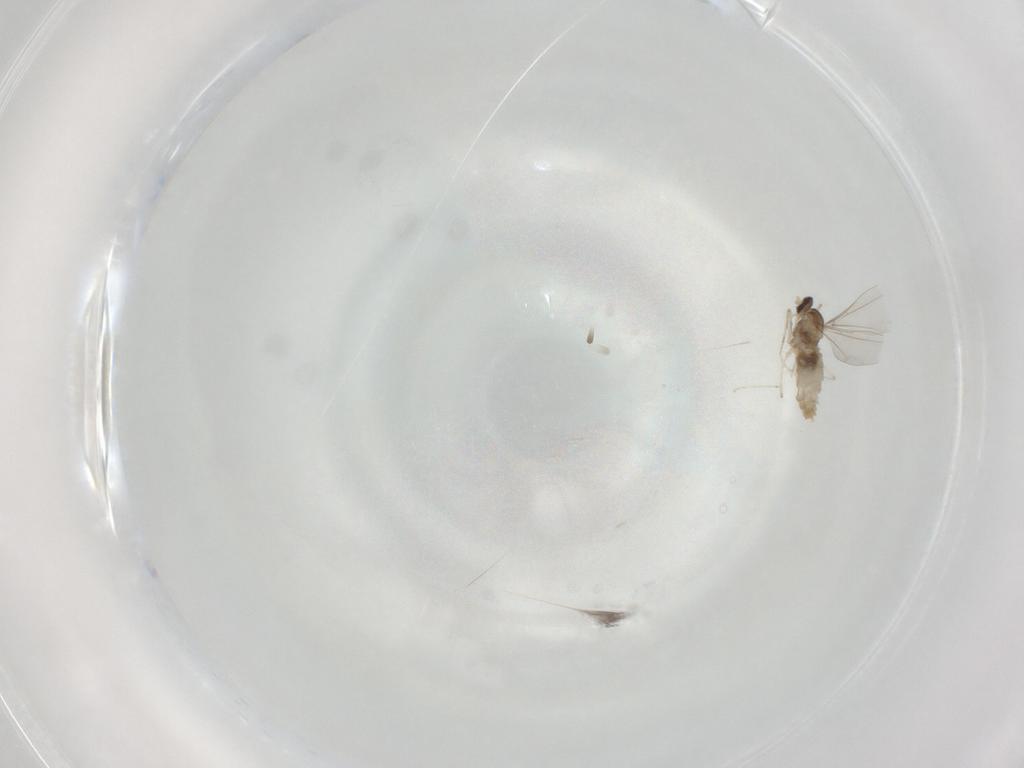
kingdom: Animalia
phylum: Arthropoda
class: Insecta
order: Diptera
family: Cecidomyiidae
